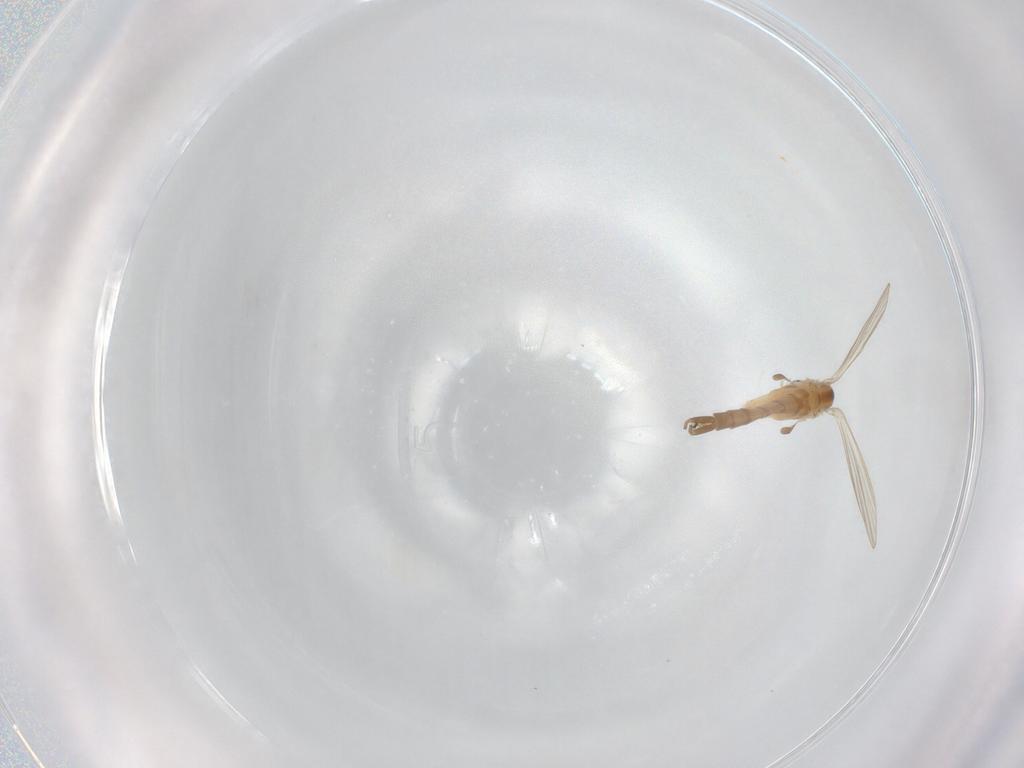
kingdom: Animalia
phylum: Arthropoda
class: Insecta
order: Diptera
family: Psychodidae
